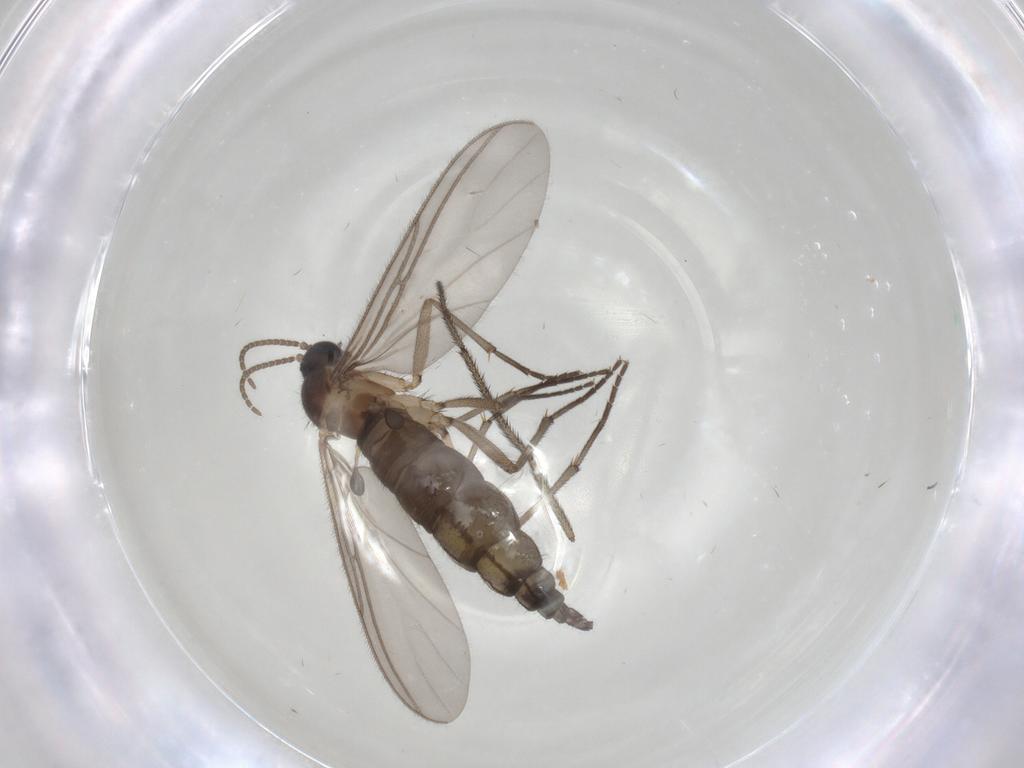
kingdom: Animalia
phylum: Arthropoda
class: Insecta
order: Diptera
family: Ditomyiidae
